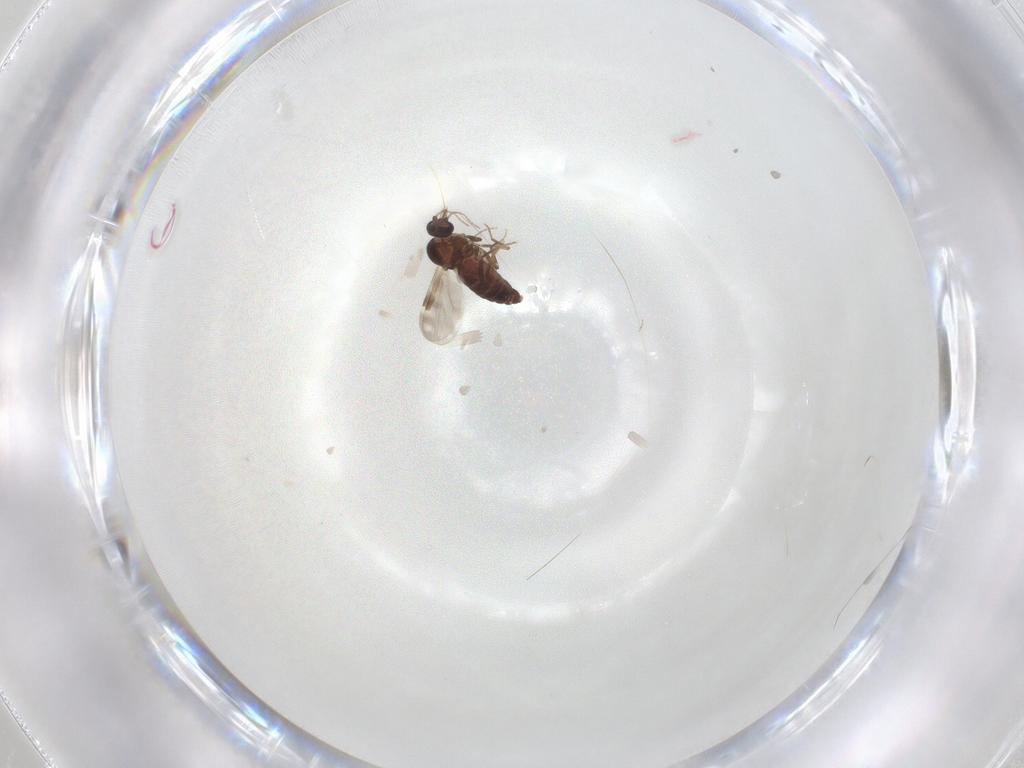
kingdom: Animalia
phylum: Arthropoda
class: Insecta
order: Diptera
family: Ceratopogonidae
